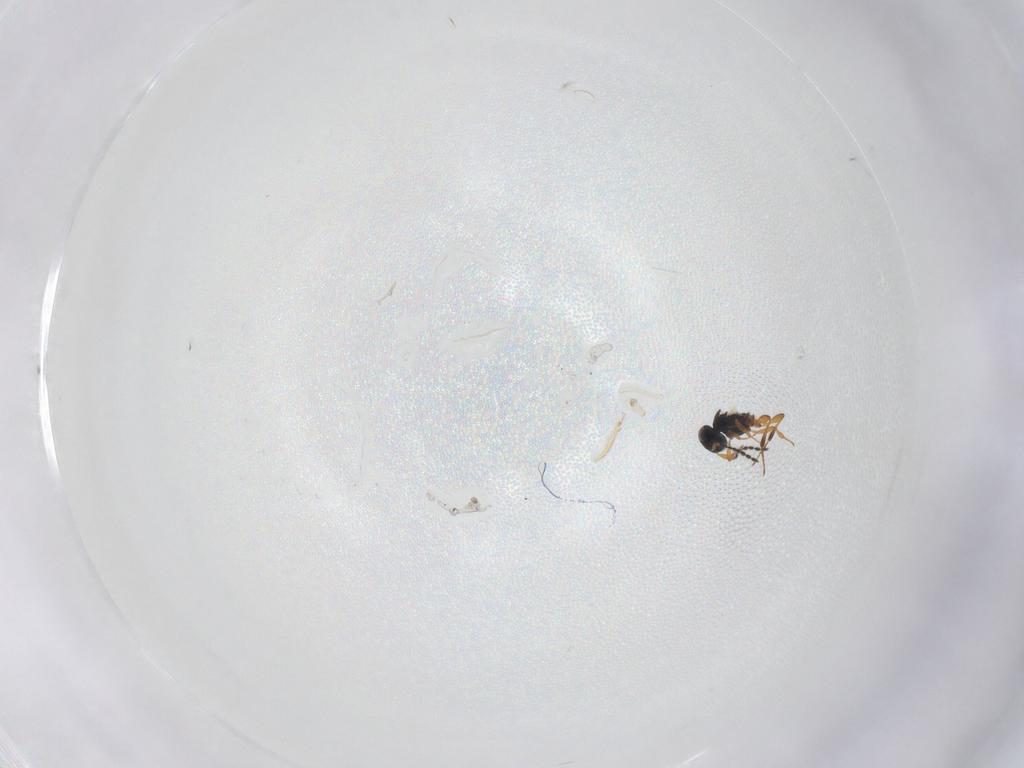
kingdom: Animalia
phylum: Arthropoda
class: Insecta
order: Hymenoptera
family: Platygastridae
